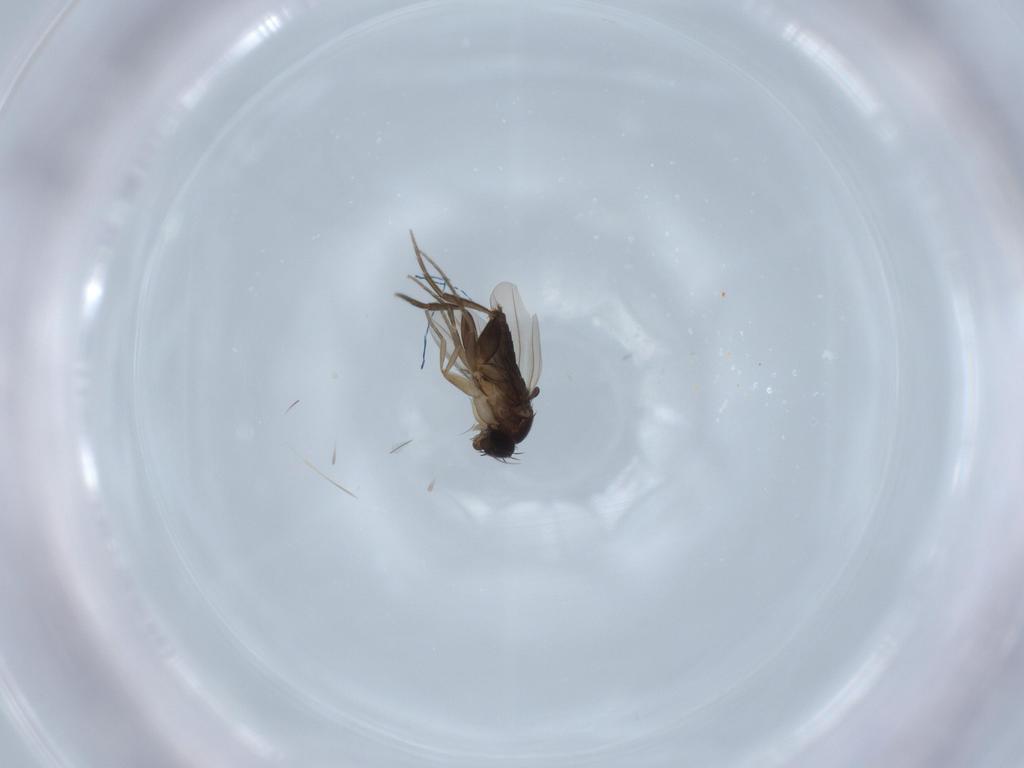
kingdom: Animalia
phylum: Arthropoda
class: Insecta
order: Diptera
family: Phoridae
